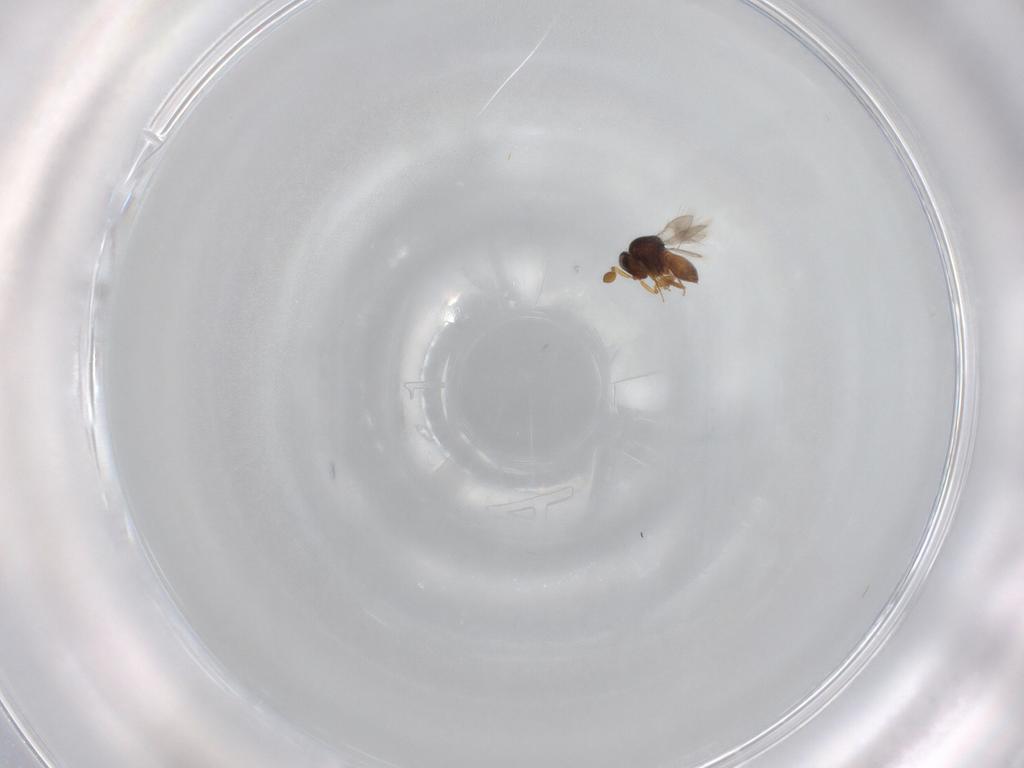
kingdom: Animalia
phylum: Arthropoda
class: Insecta
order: Hymenoptera
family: Scelionidae
